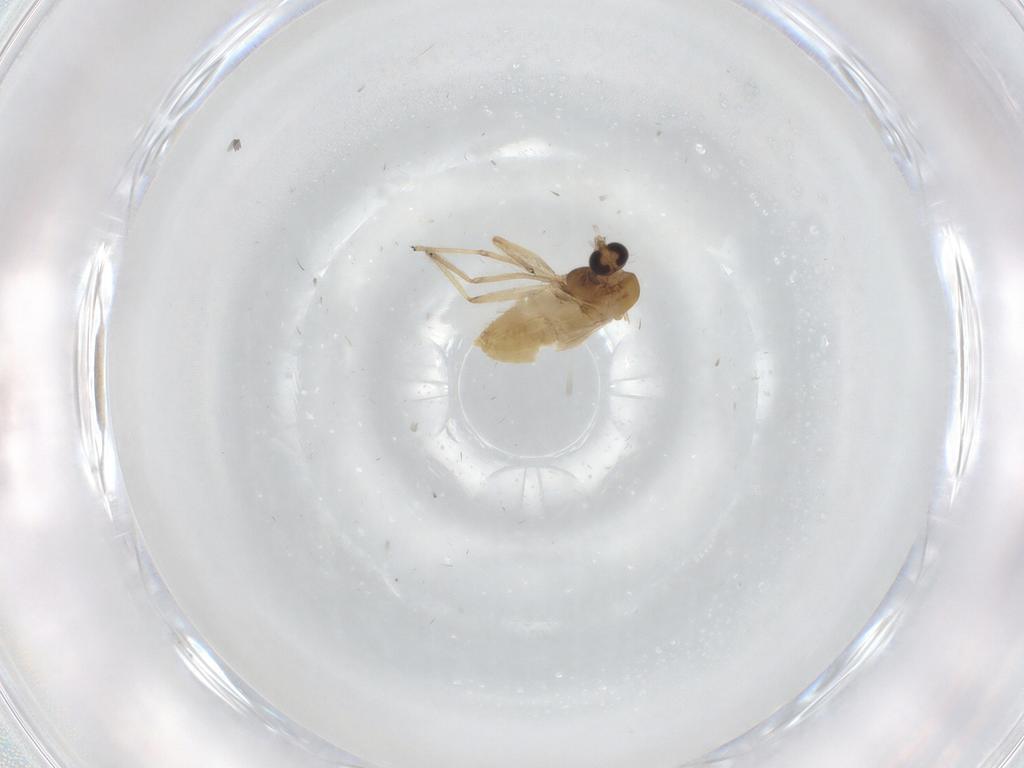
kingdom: Animalia
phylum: Arthropoda
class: Insecta
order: Diptera
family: Chironomidae
